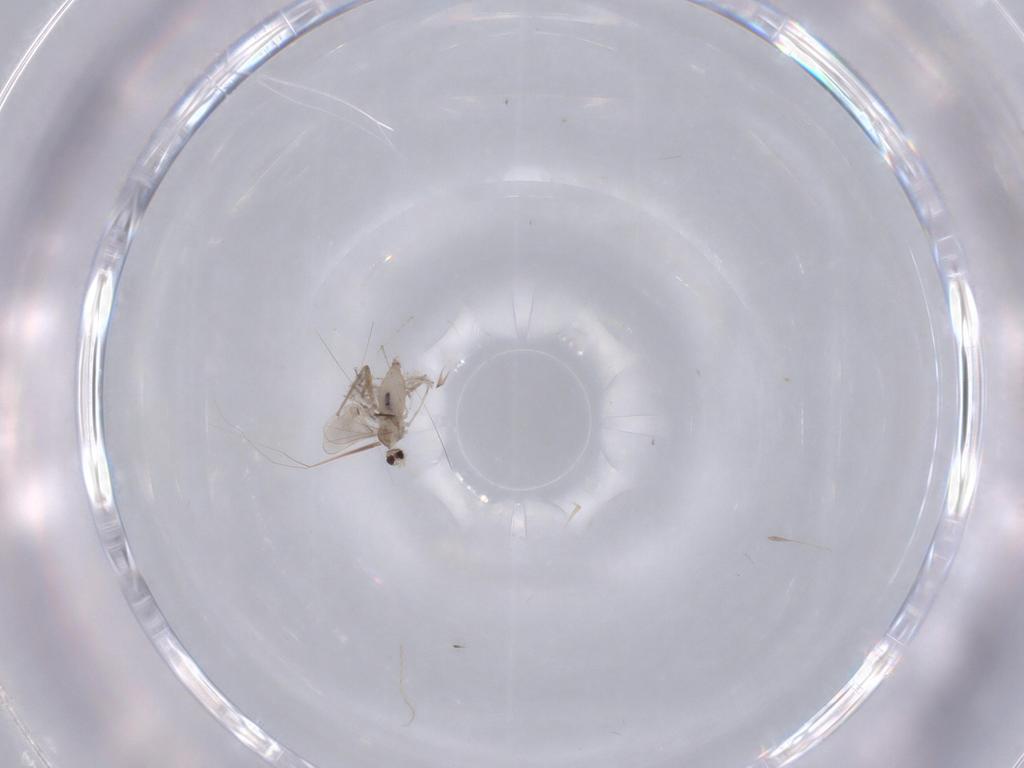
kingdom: Animalia
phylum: Arthropoda
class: Insecta
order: Diptera
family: Cecidomyiidae
